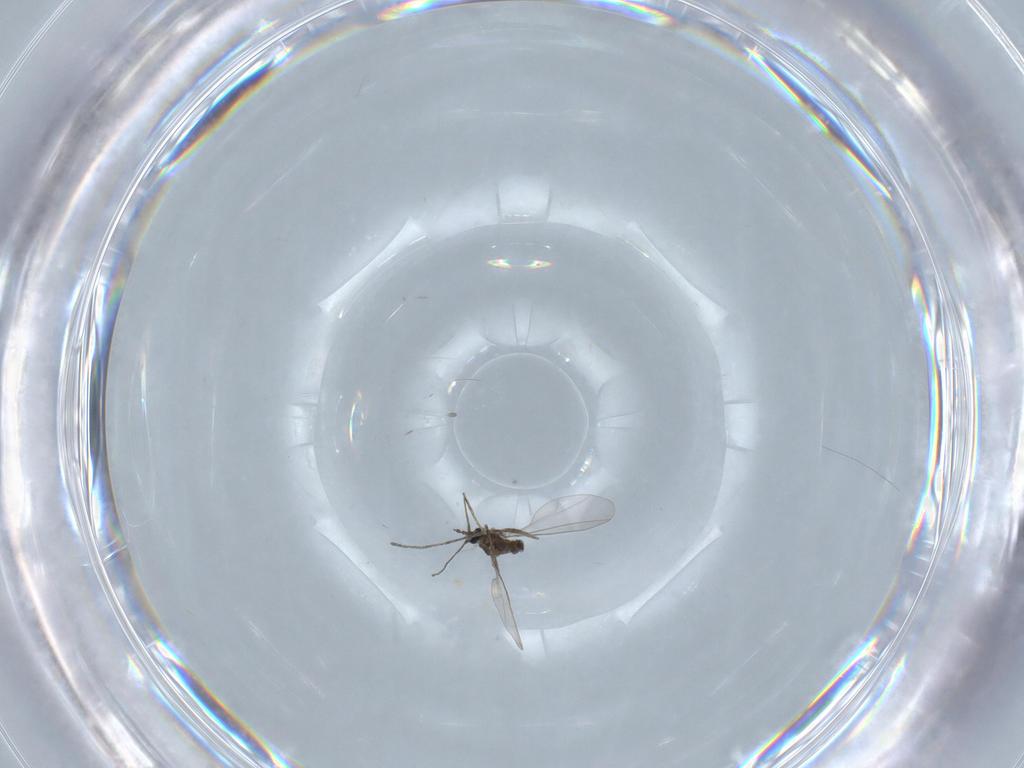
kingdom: Animalia
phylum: Arthropoda
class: Insecta
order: Diptera
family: Cecidomyiidae
